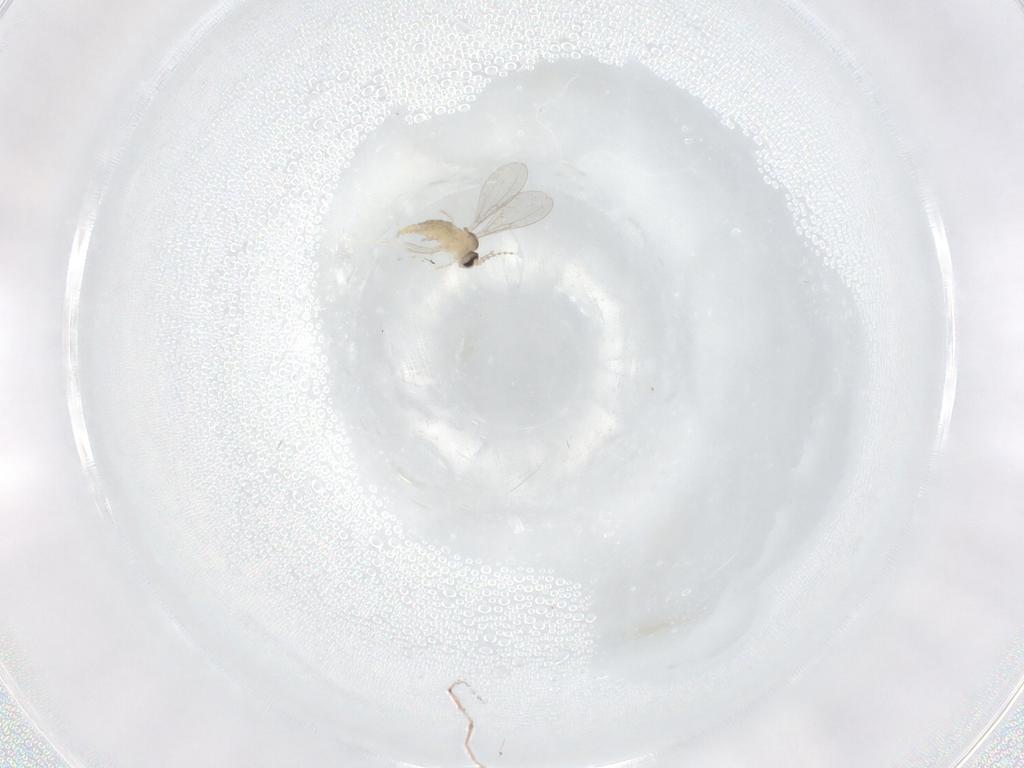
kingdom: Animalia
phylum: Arthropoda
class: Insecta
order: Diptera
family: Cecidomyiidae
